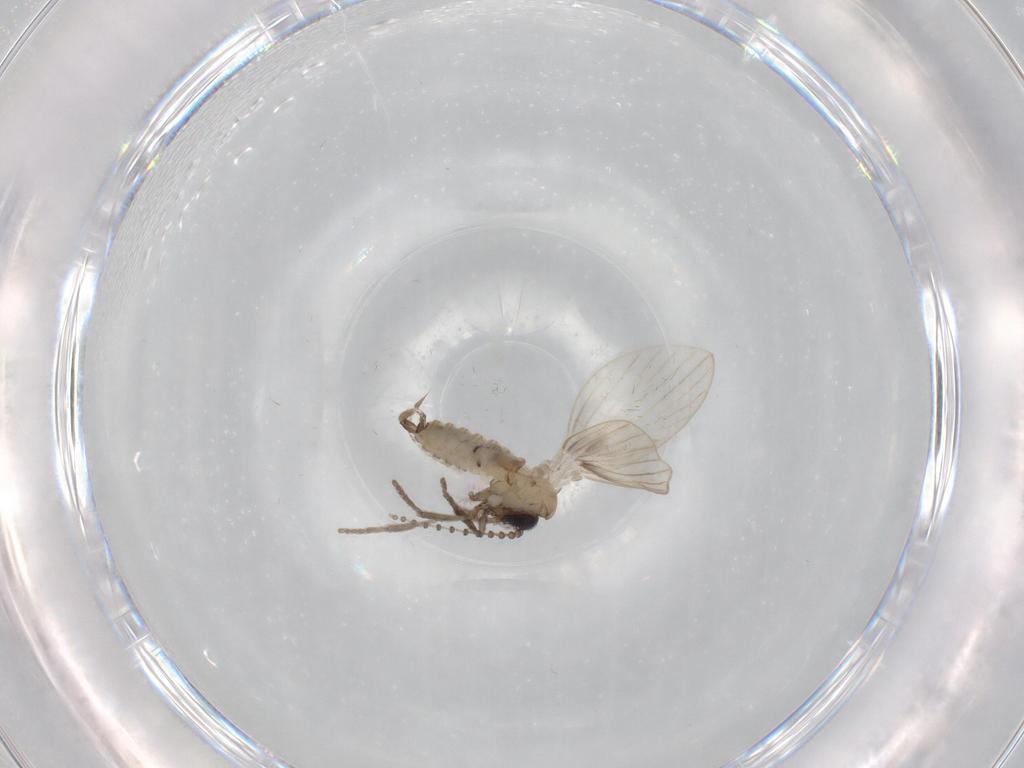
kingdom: Animalia
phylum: Arthropoda
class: Insecta
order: Diptera
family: Chloropidae
